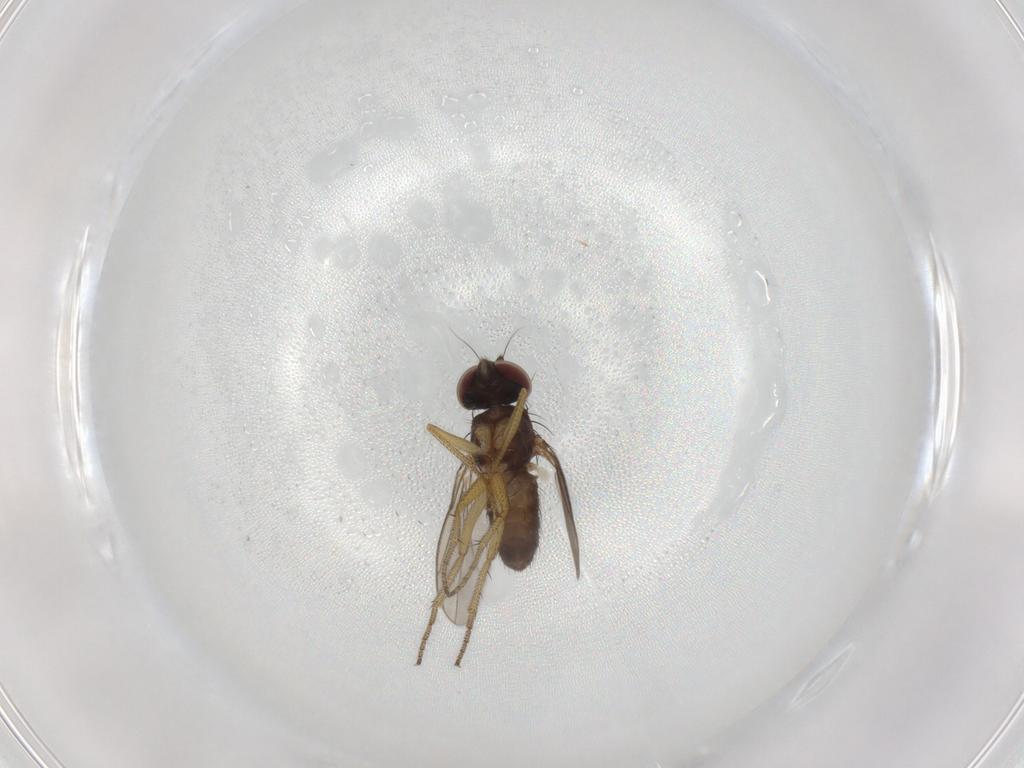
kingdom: Animalia
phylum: Arthropoda
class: Insecta
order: Diptera
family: Dolichopodidae
